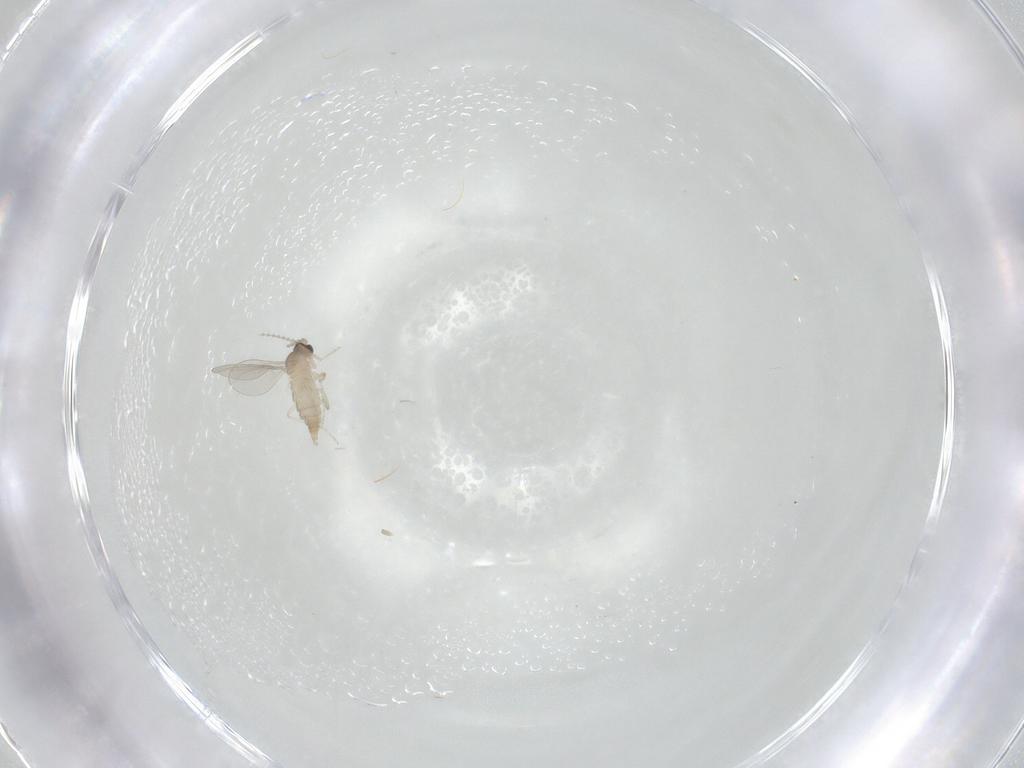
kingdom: Animalia
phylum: Arthropoda
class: Insecta
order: Diptera
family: Cecidomyiidae
